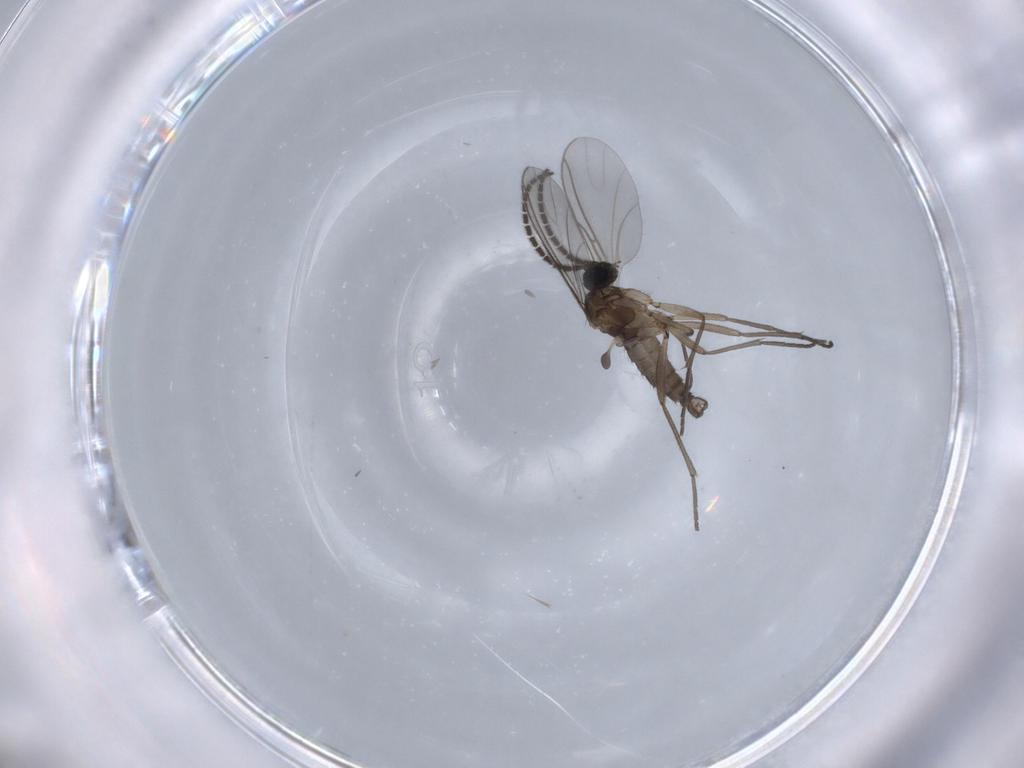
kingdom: Animalia
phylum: Arthropoda
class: Insecta
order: Diptera
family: Sciaridae
